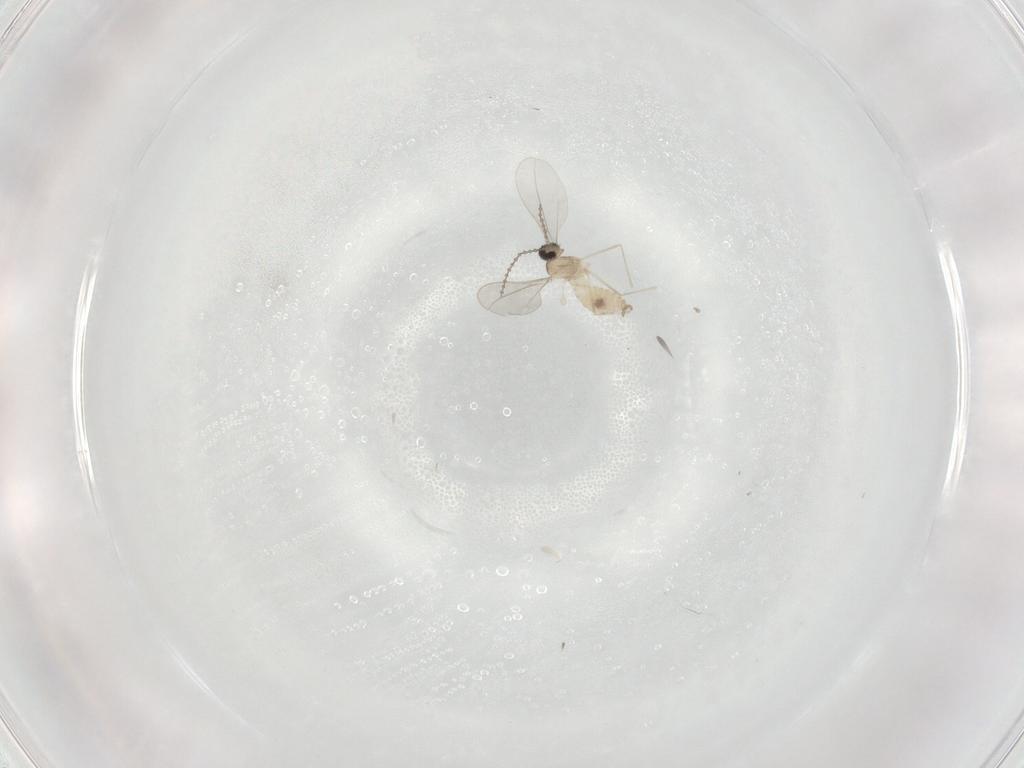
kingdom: Animalia
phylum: Arthropoda
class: Insecta
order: Diptera
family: Cecidomyiidae
